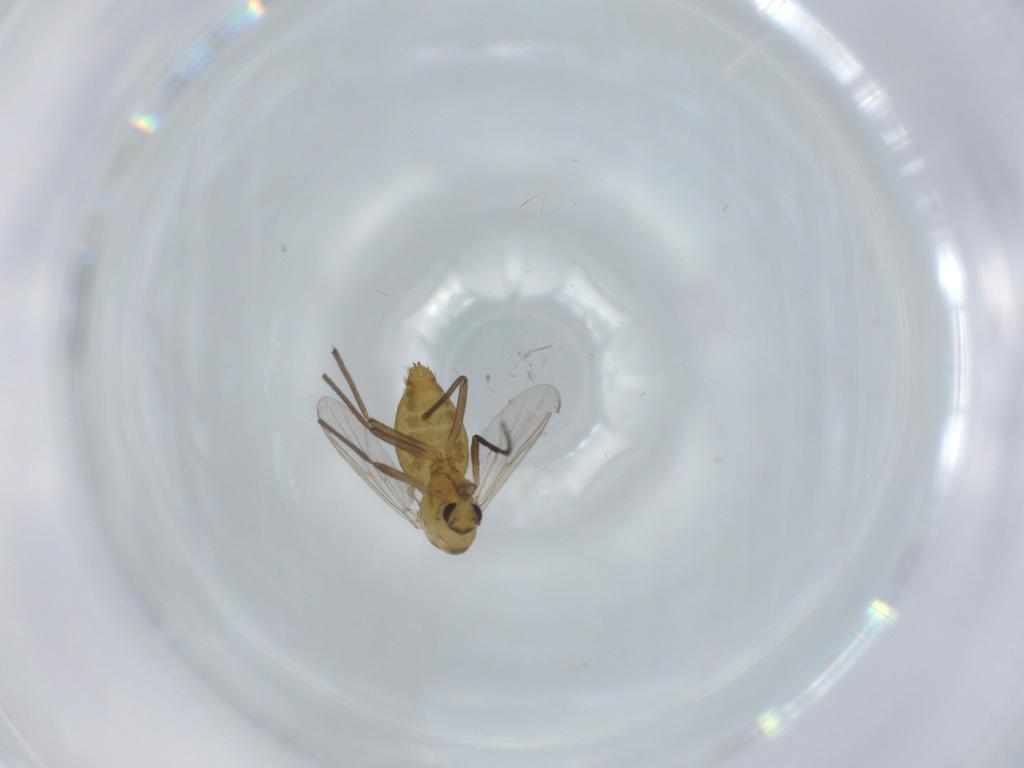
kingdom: Animalia
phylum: Arthropoda
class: Insecta
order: Diptera
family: Chironomidae
